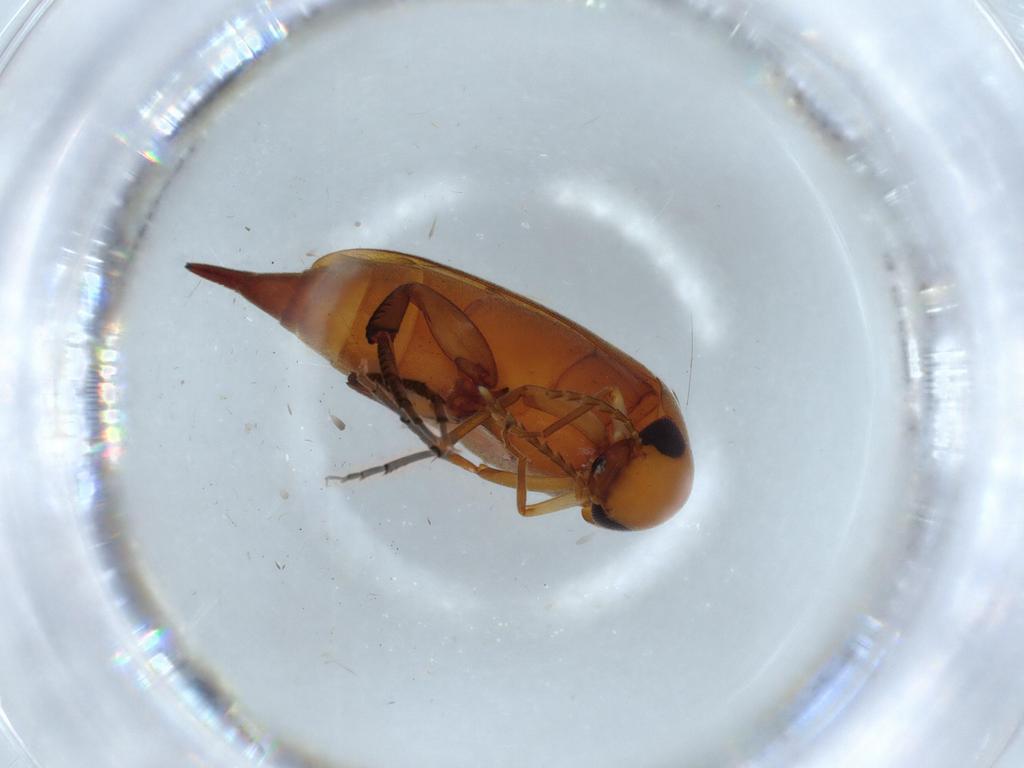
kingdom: Animalia
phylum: Arthropoda
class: Insecta
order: Coleoptera
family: Mordellidae
